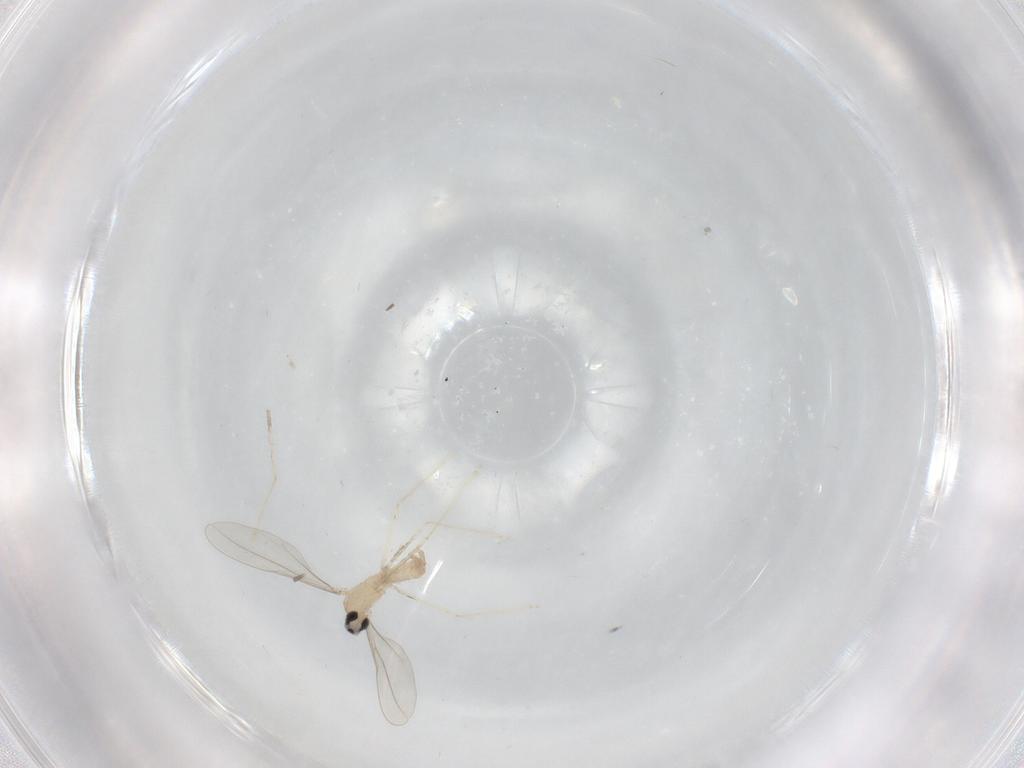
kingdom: Animalia
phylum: Arthropoda
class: Insecta
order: Diptera
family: Cecidomyiidae
